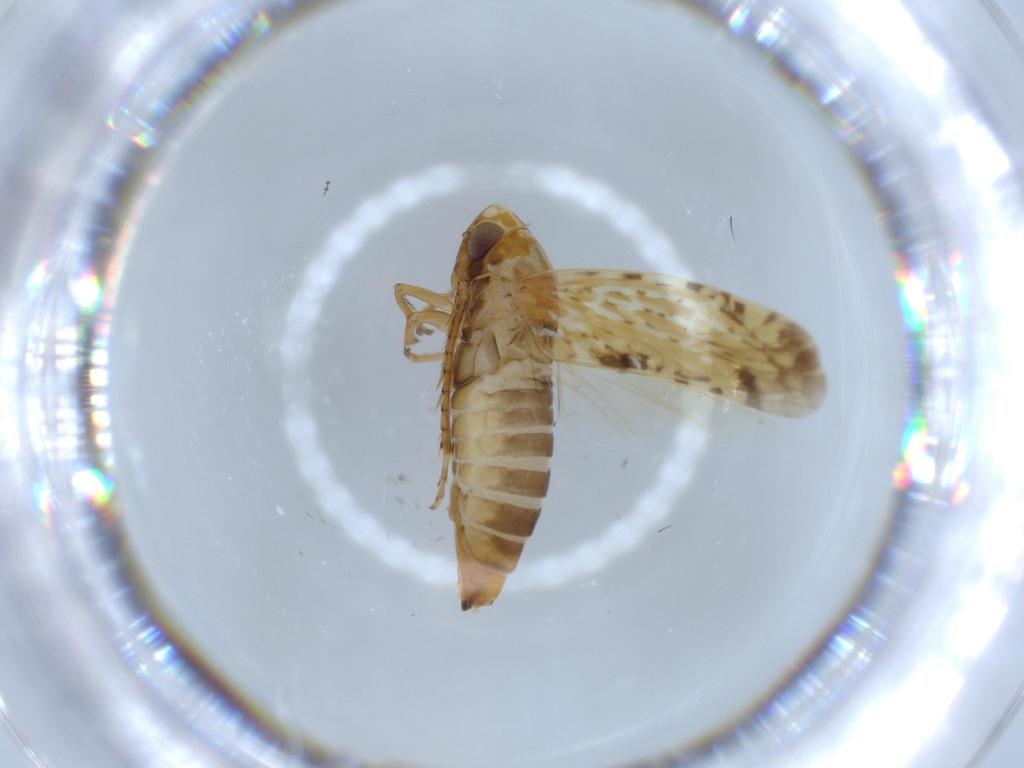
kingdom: Animalia
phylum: Arthropoda
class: Insecta
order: Hemiptera
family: Cicadellidae
